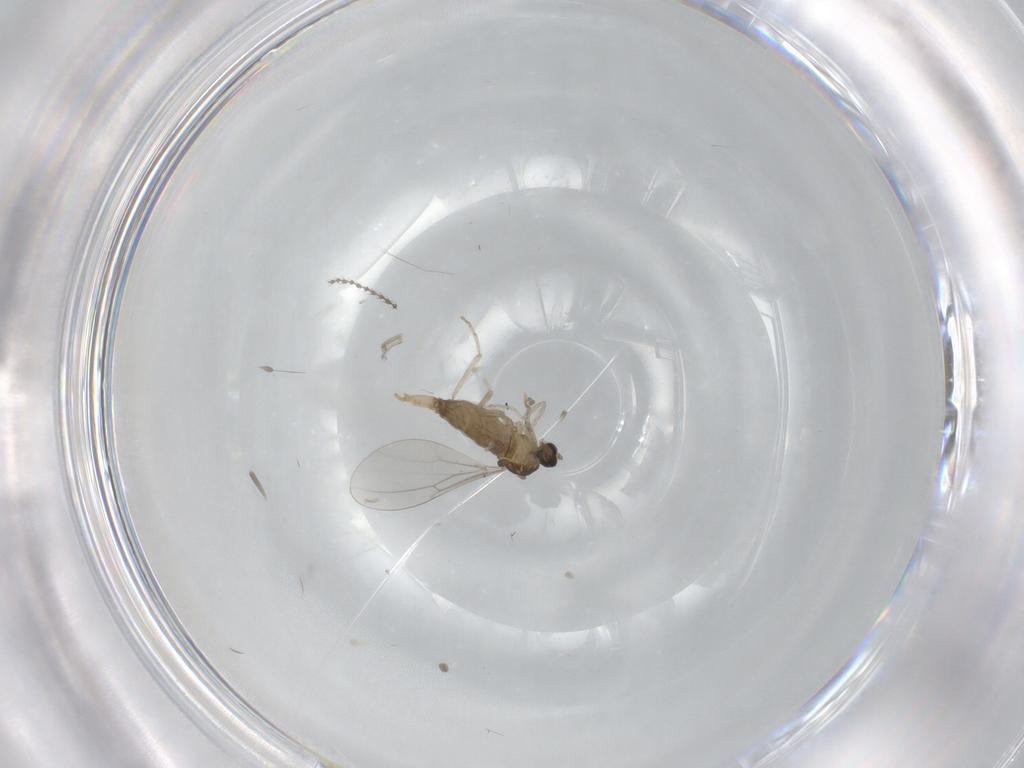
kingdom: Animalia
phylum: Arthropoda
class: Insecta
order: Diptera
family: Cecidomyiidae
